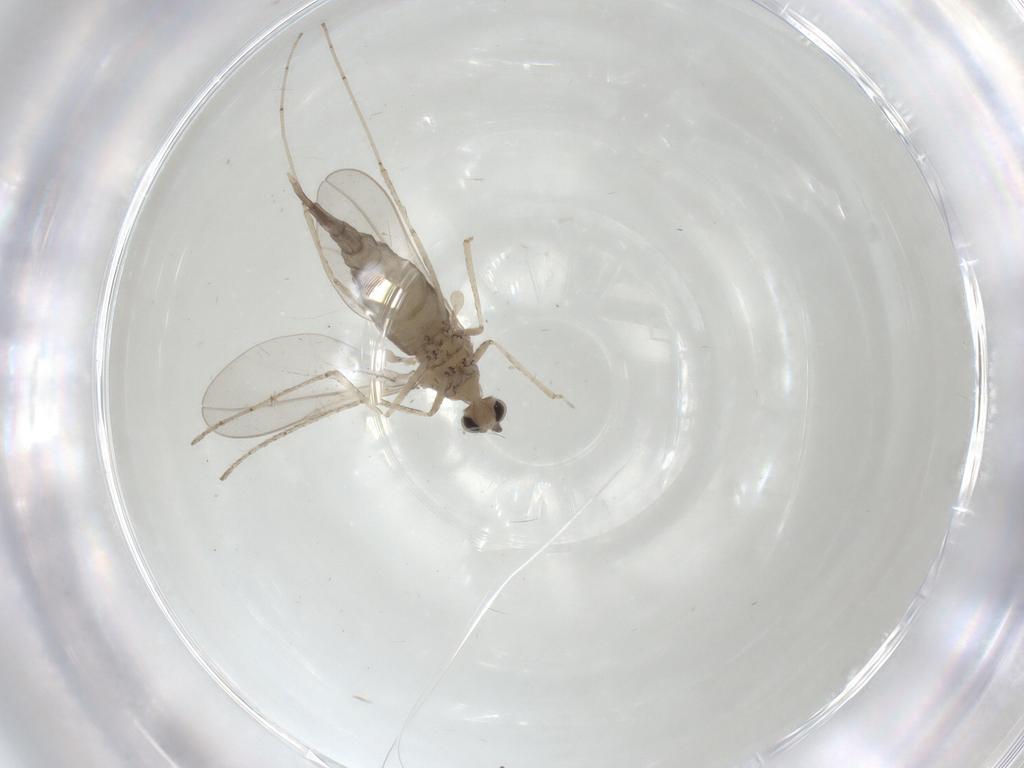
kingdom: Animalia
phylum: Arthropoda
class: Insecta
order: Diptera
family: Cecidomyiidae
